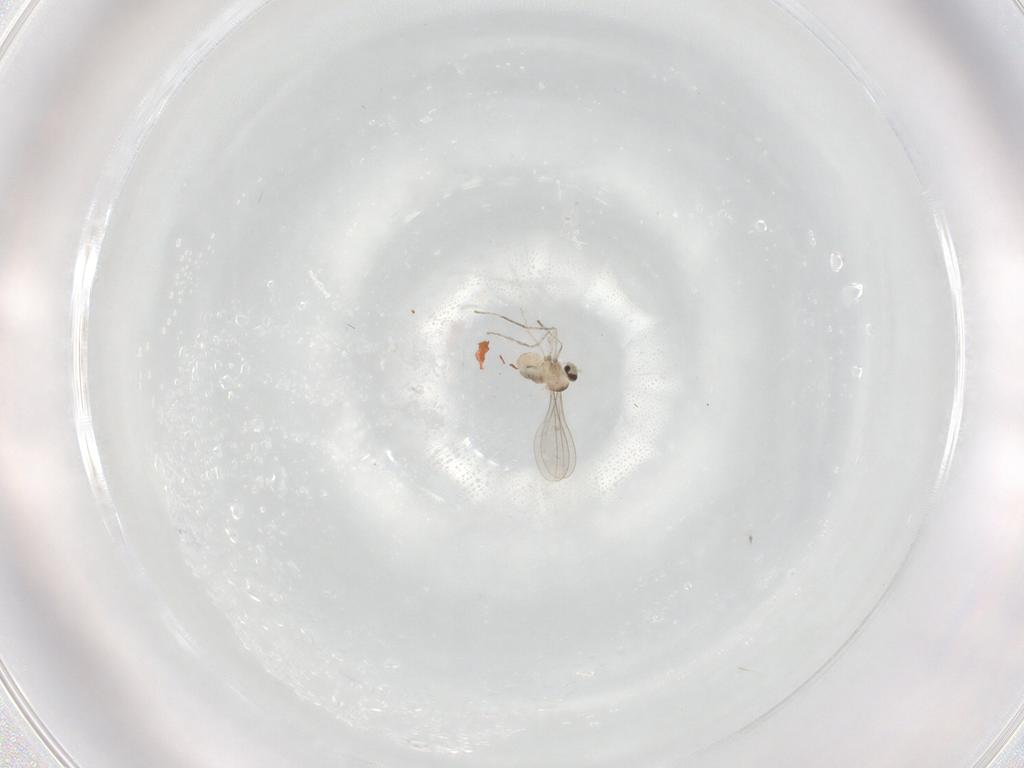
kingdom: Animalia
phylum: Arthropoda
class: Insecta
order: Diptera
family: Cecidomyiidae
